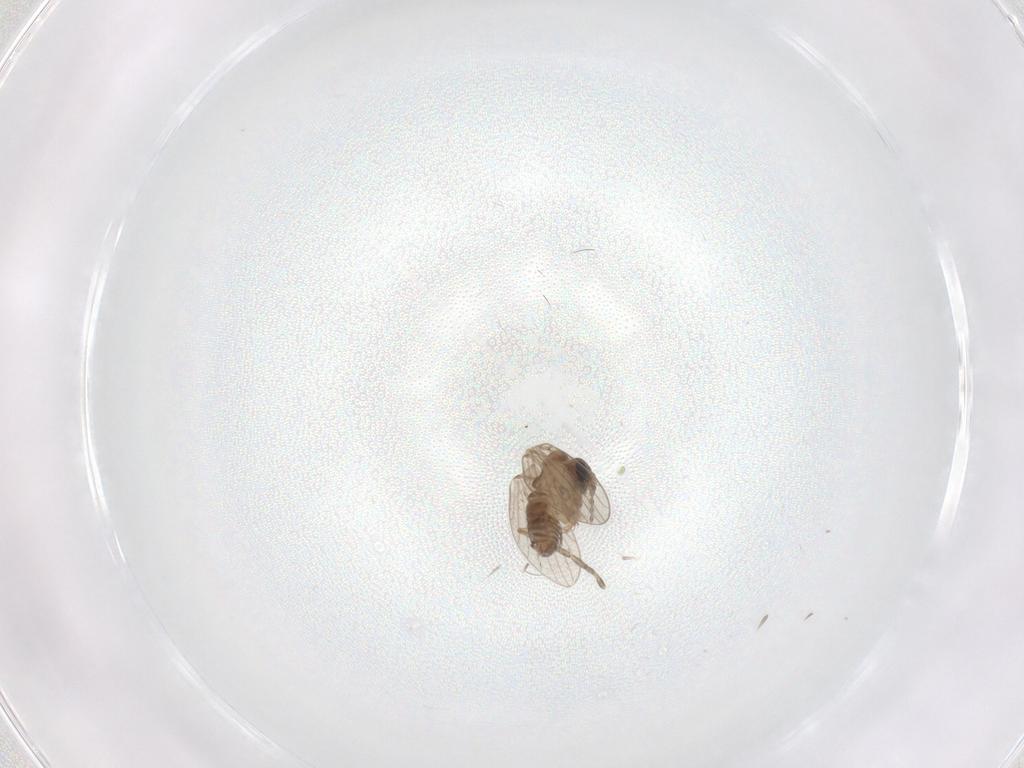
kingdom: Animalia
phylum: Arthropoda
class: Insecta
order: Diptera
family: Psychodidae
